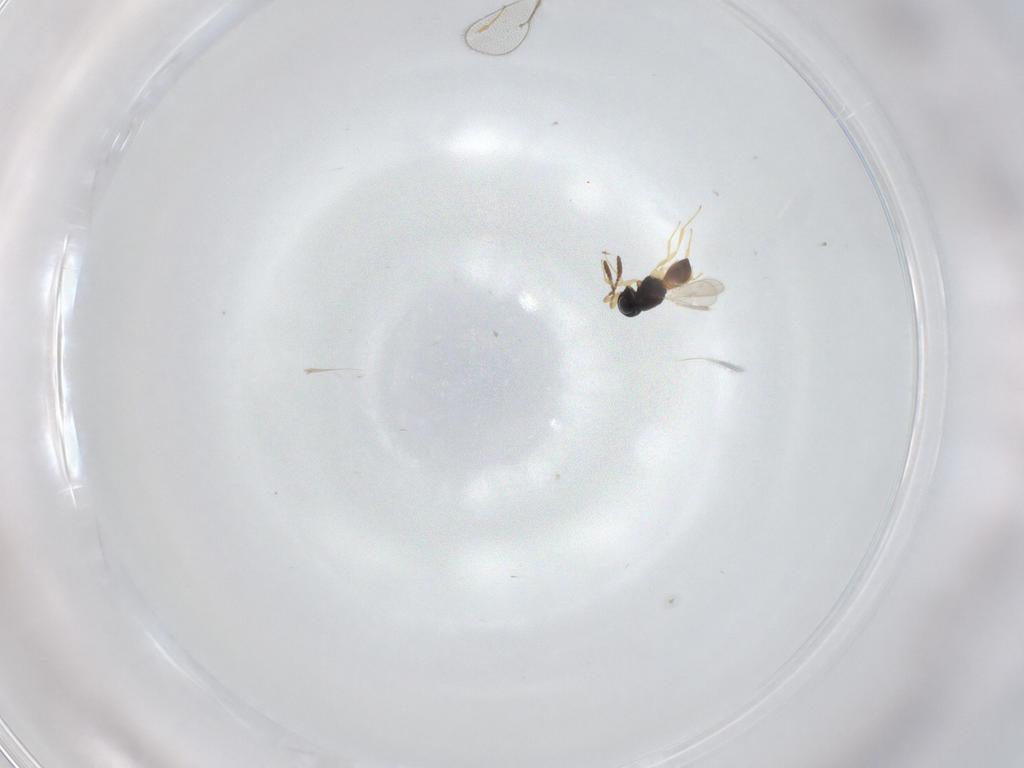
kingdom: Animalia
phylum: Arthropoda
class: Insecta
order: Hymenoptera
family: Scelionidae
